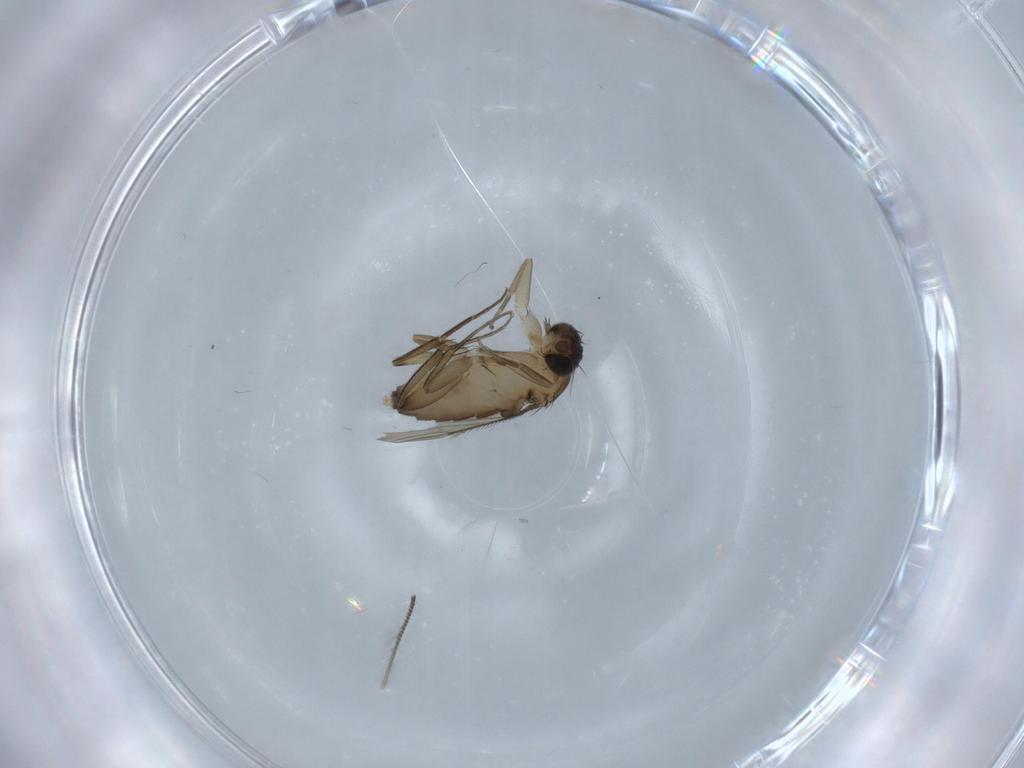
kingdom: Animalia
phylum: Arthropoda
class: Insecta
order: Diptera
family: Phoridae
